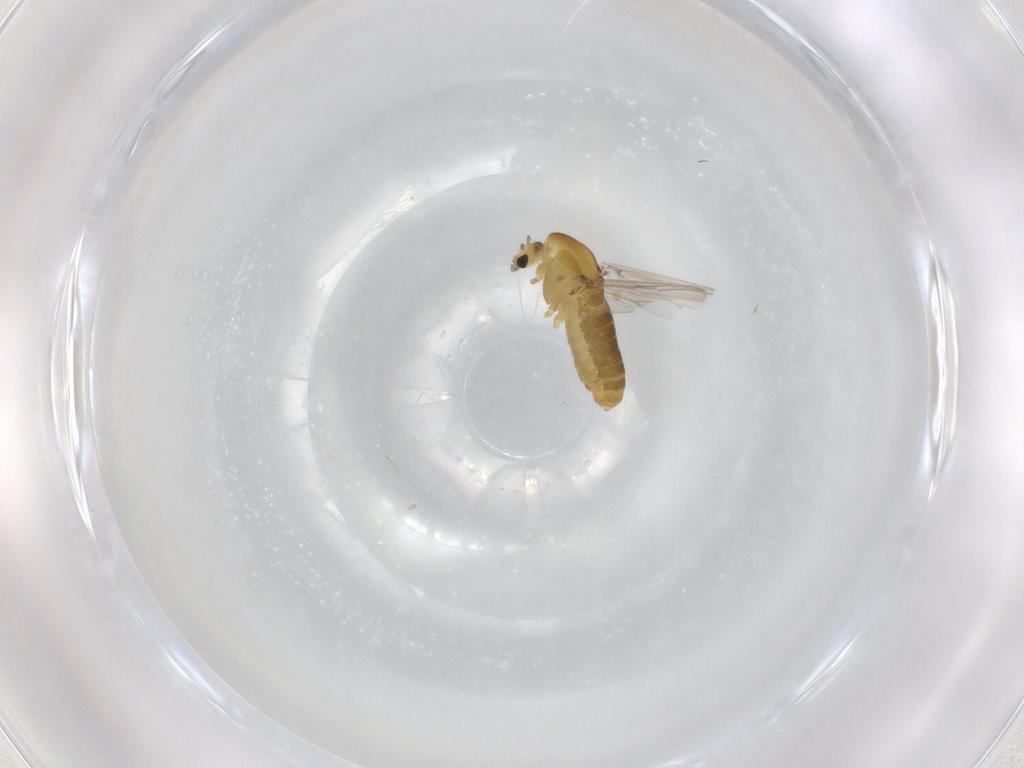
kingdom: Animalia
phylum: Arthropoda
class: Insecta
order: Diptera
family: Chironomidae
